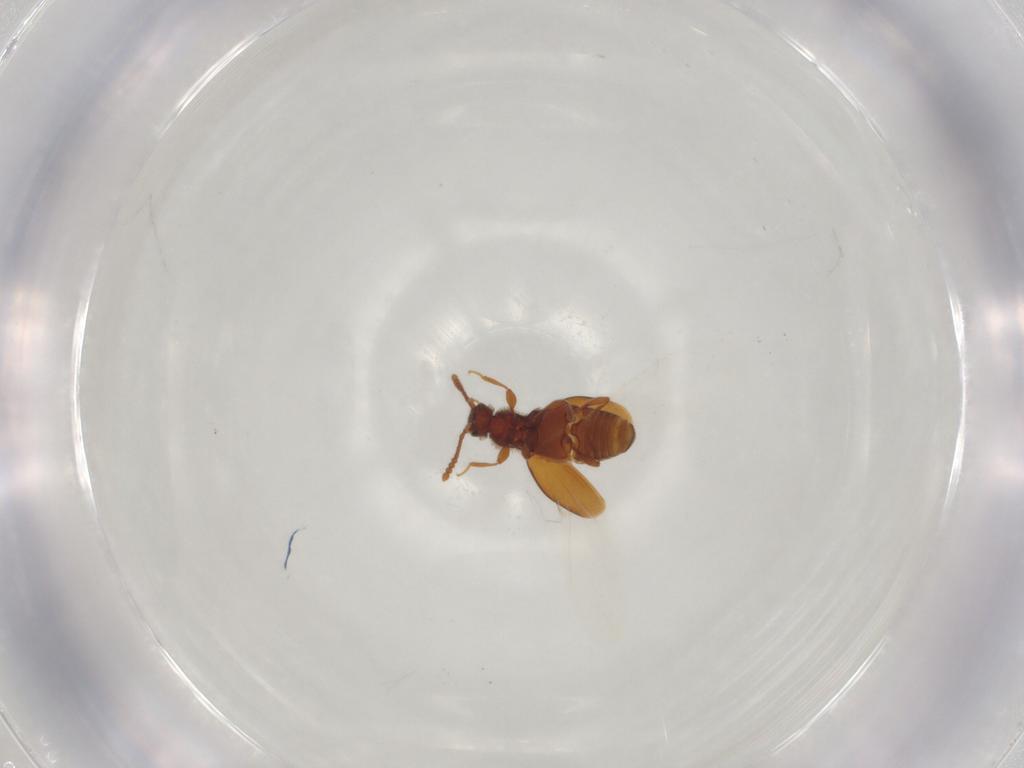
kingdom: Animalia
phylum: Arthropoda
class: Insecta
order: Coleoptera
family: Staphylinidae
